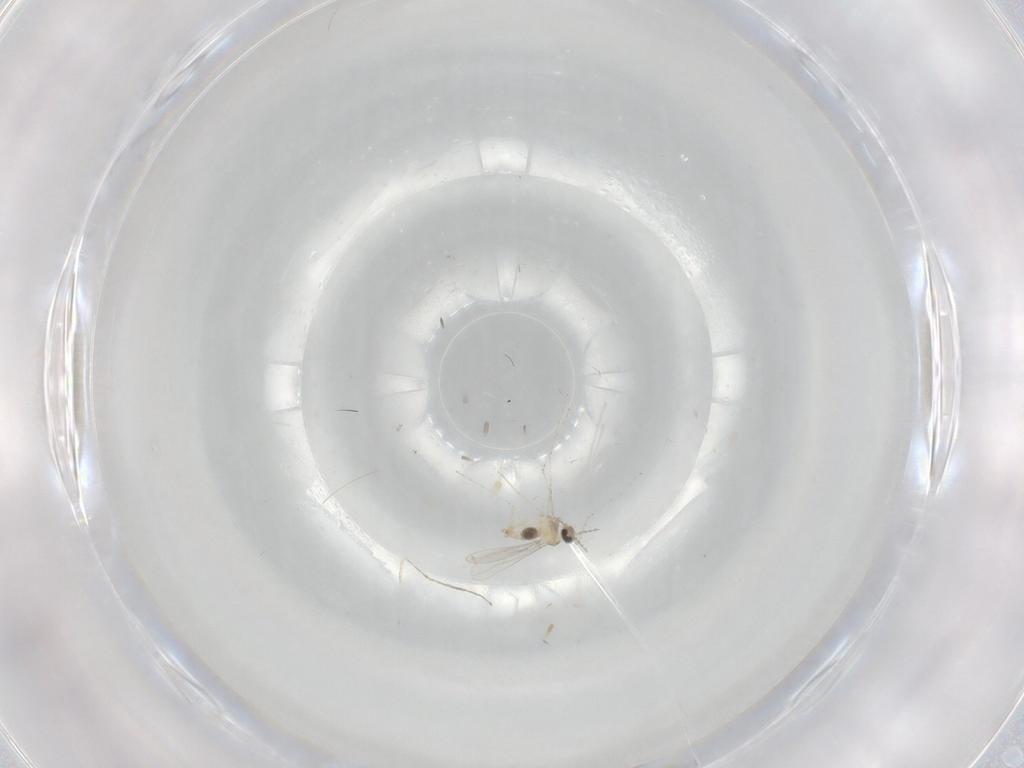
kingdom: Animalia
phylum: Arthropoda
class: Insecta
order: Diptera
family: Cecidomyiidae
